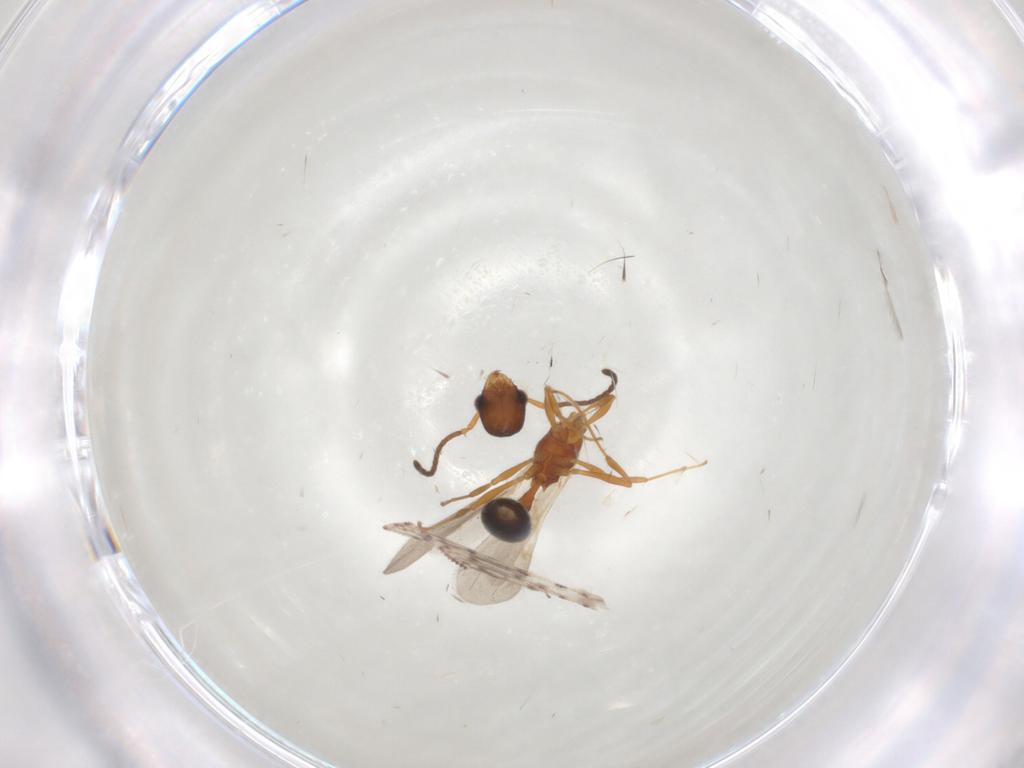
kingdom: Animalia
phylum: Arthropoda
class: Insecta
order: Hymenoptera
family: Formicidae
